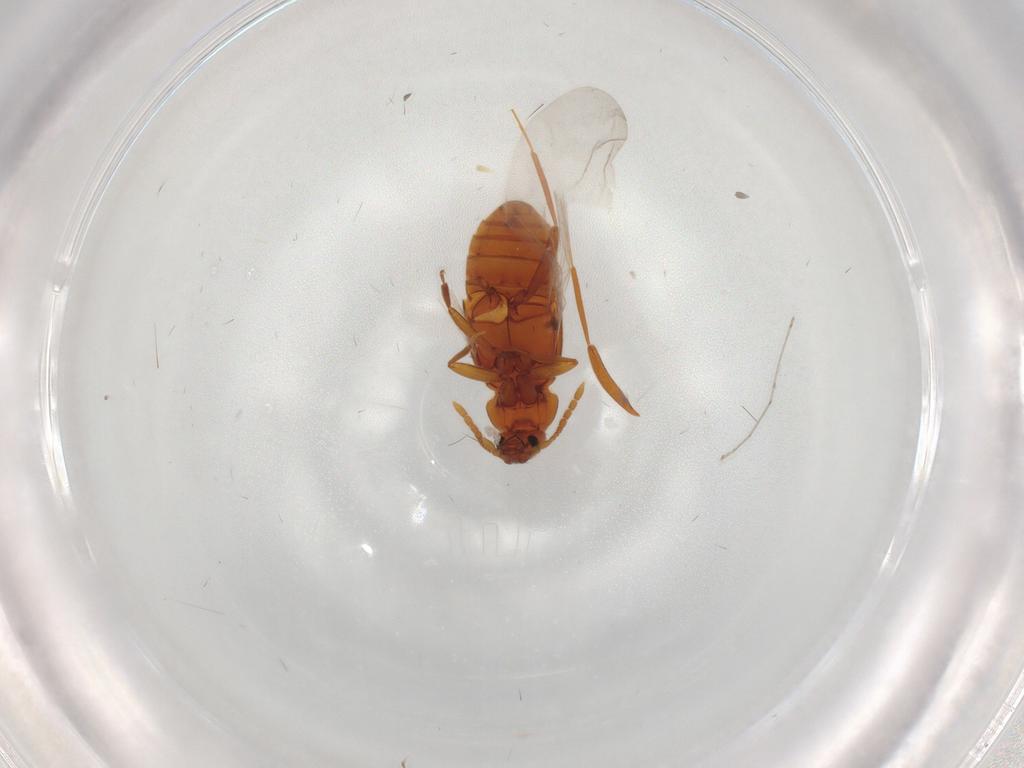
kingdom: Animalia
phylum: Arthropoda
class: Insecta
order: Coleoptera
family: Staphylinidae
